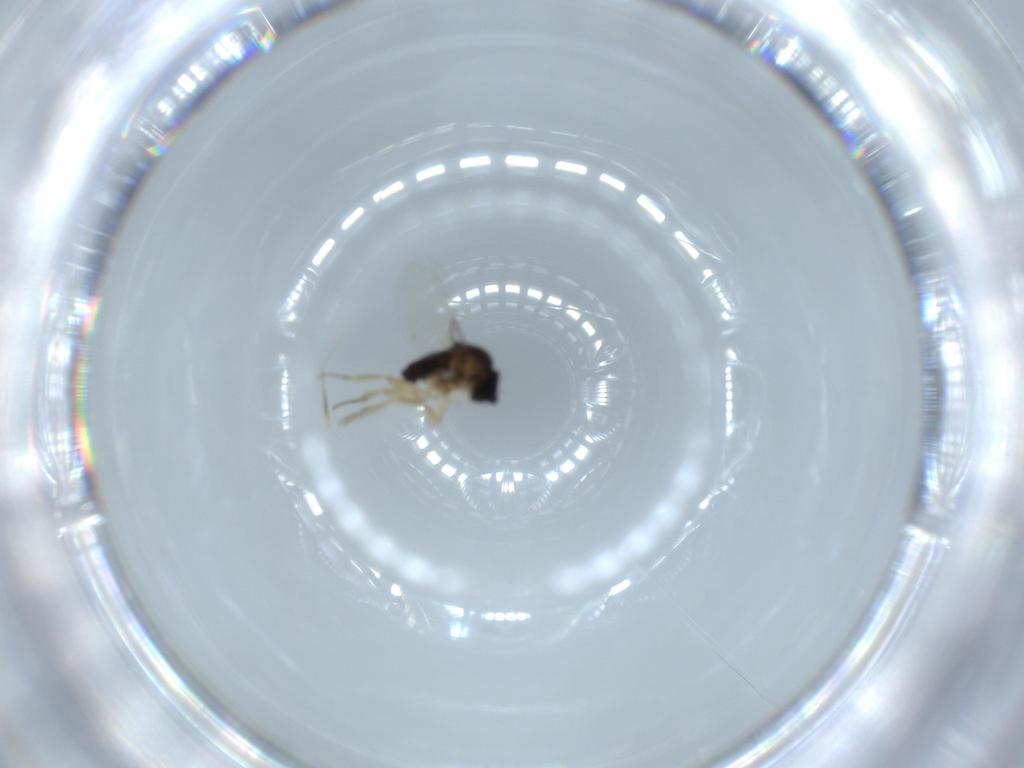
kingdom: Animalia
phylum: Arthropoda
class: Insecta
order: Diptera
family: Phoridae
